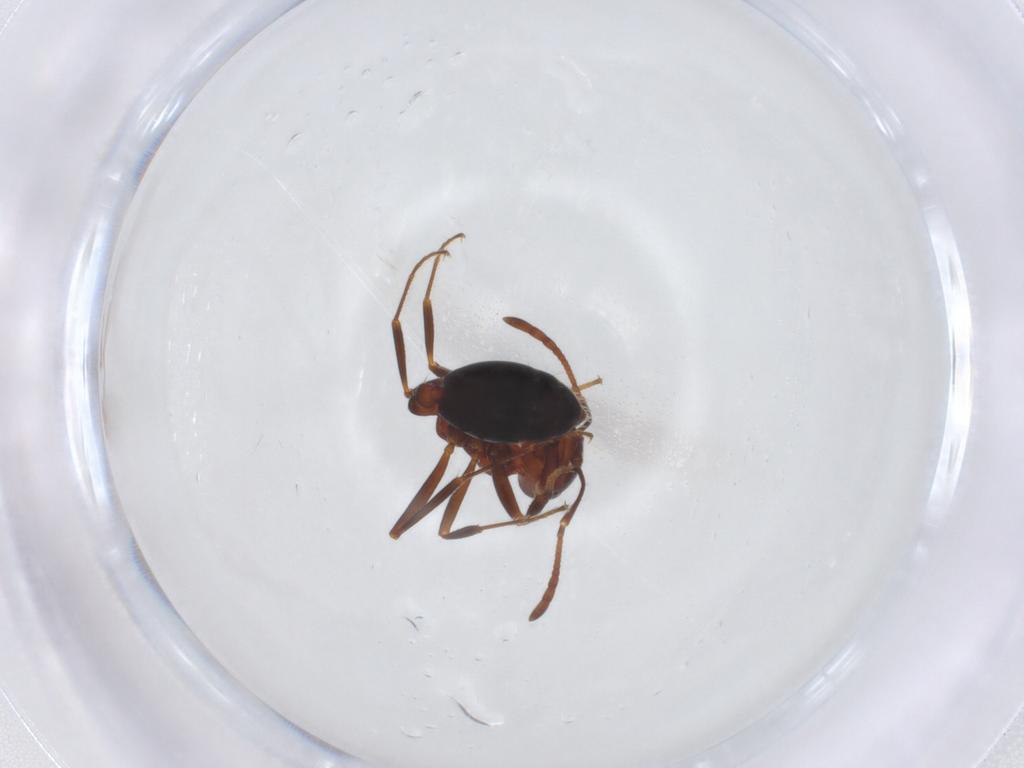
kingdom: Animalia
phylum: Arthropoda
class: Insecta
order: Hymenoptera
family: Formicidae
